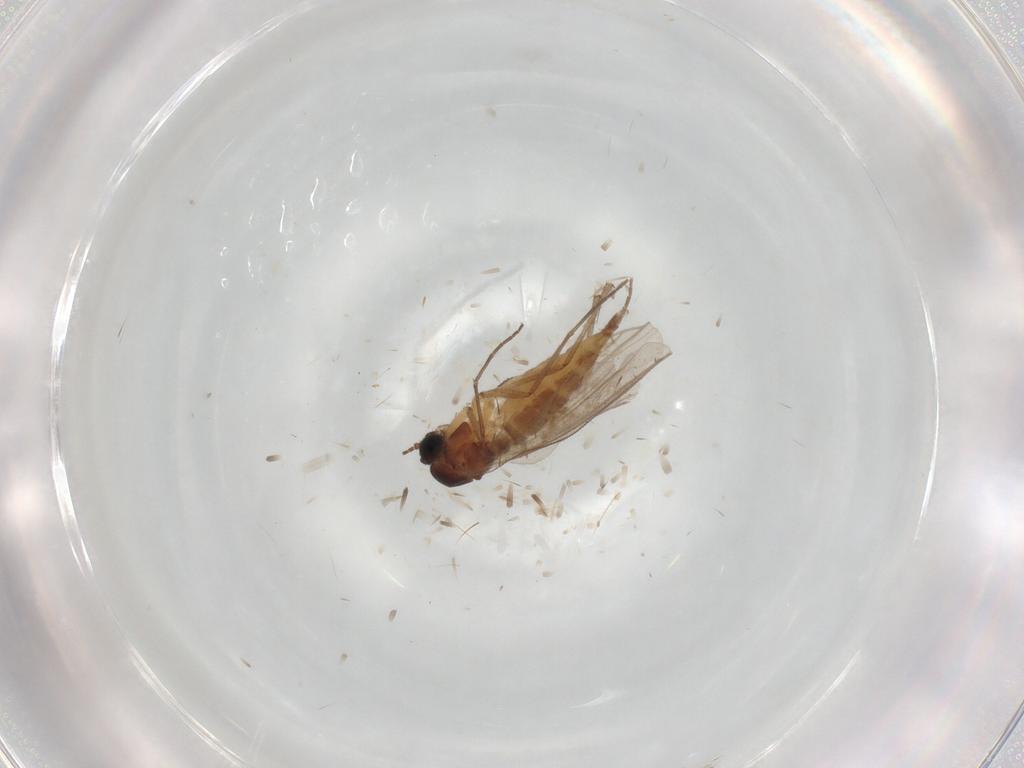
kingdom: Animalia
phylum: Arthropoda
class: Insecta
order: Diptera
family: Sciaridae
